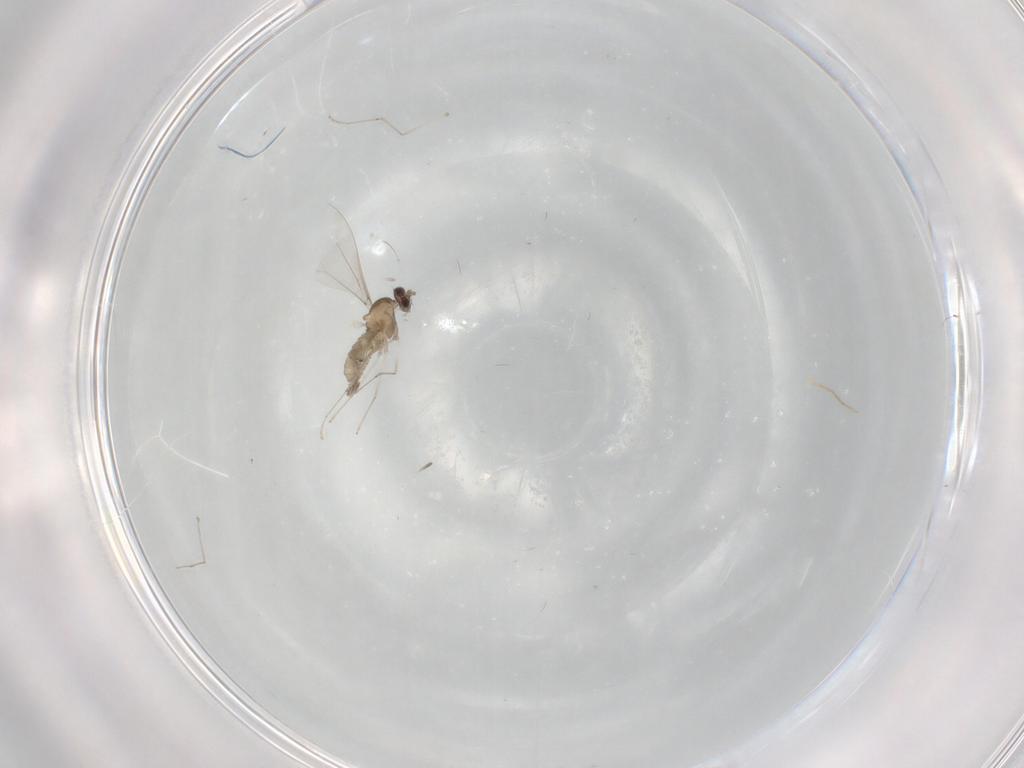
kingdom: Animalia
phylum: Arthropoda
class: Insecta
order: Diptera
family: Cecidomyiidae
